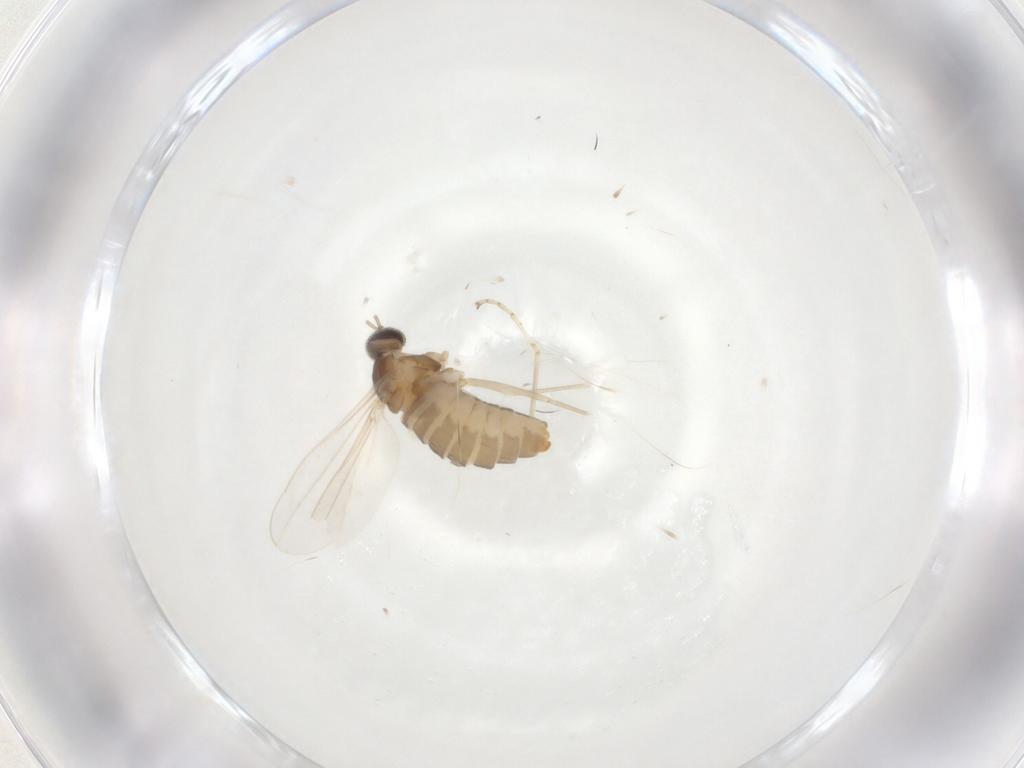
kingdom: Animalia
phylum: Arthropoda
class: Insecta
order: Diptera
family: Cecidomyiidae
